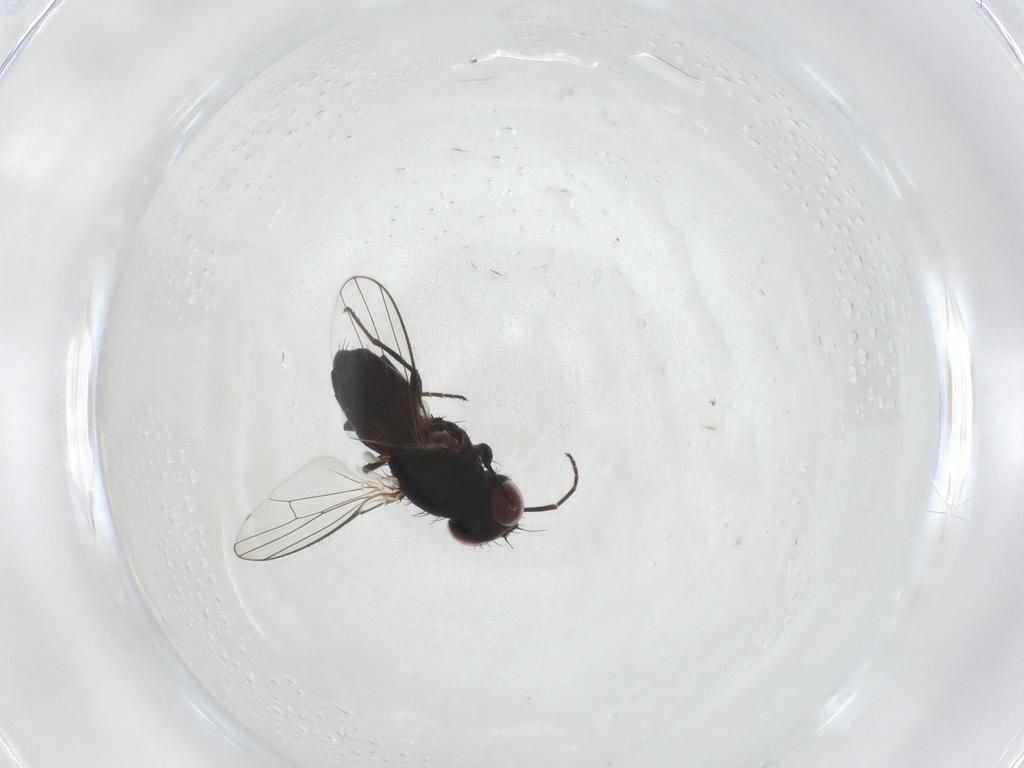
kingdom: Animalia
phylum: Arthropoda
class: Insecta
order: Diptera
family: Carnidae
